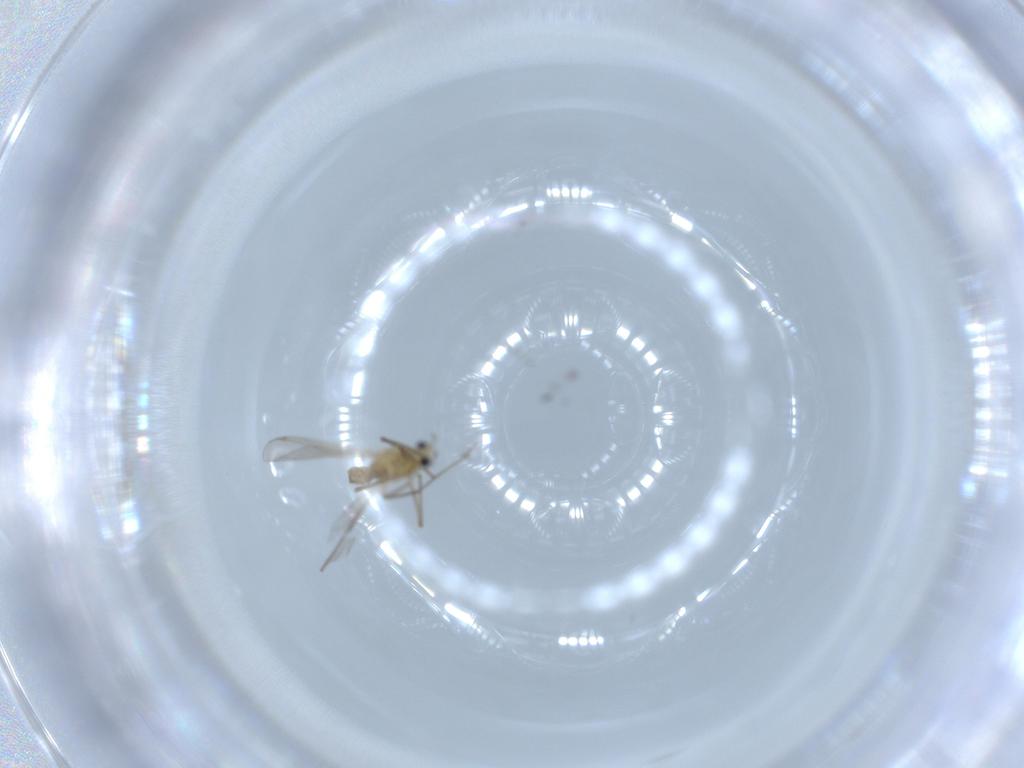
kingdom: Animalia
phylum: Arthropoda
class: Insecta
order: Diptera
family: Chironomidae
